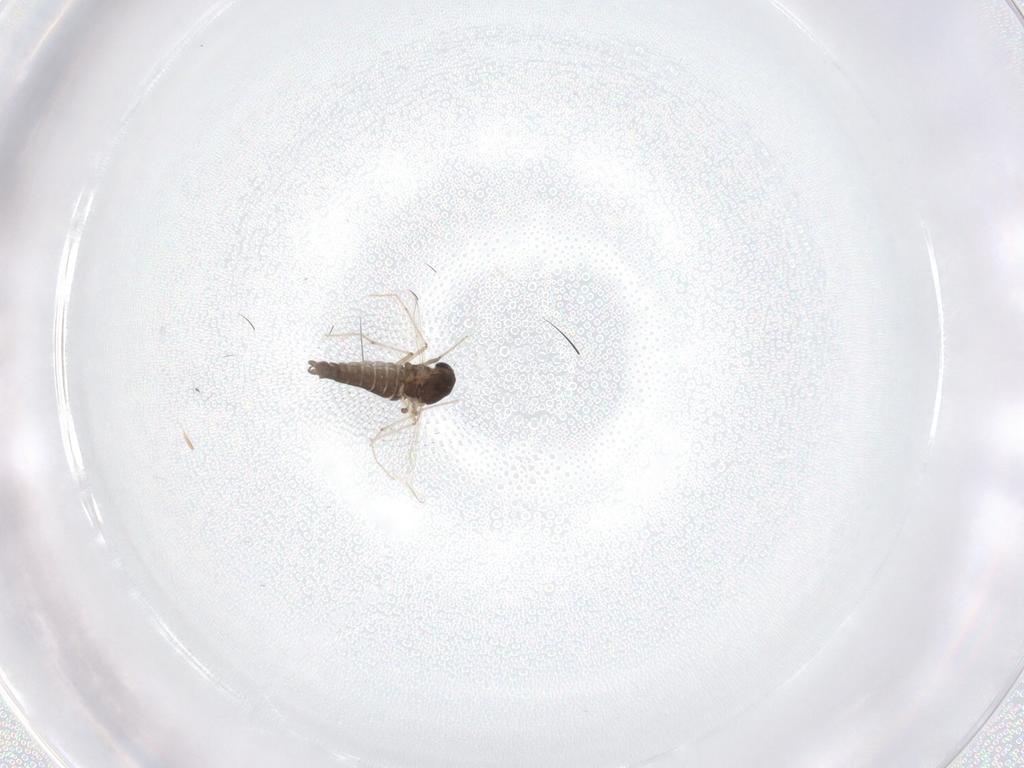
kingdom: Animalia
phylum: Arthropoda
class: Insecta
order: Diptera
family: Chironomidae
